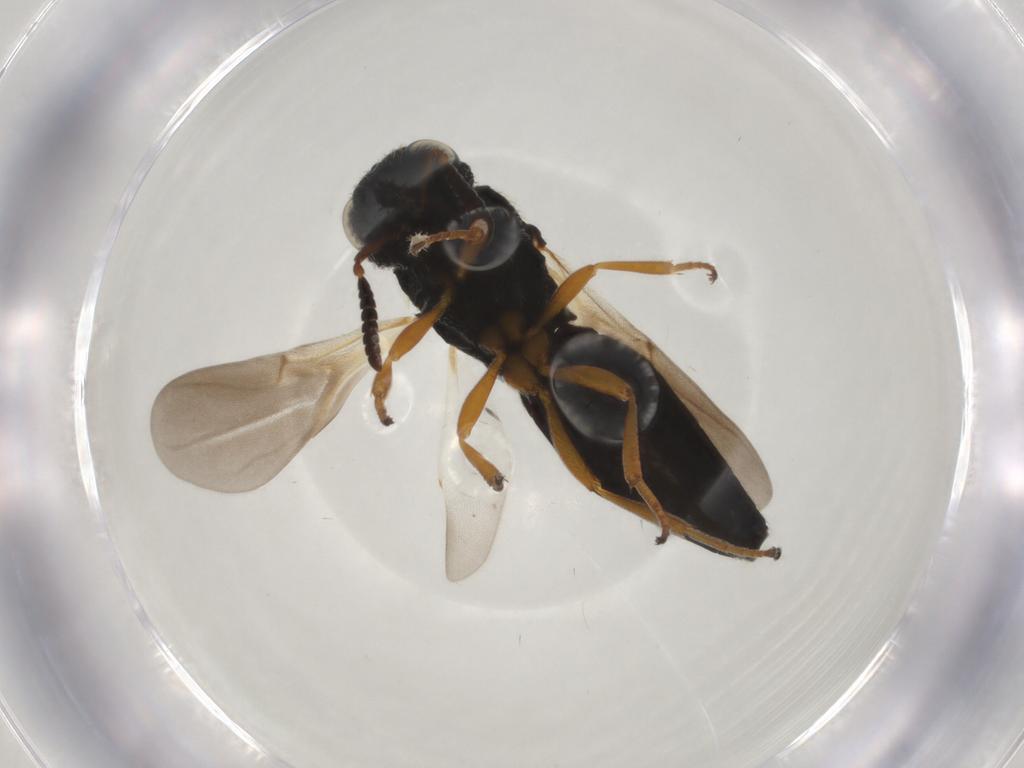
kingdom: Animalia
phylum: Arthropoda
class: Insecta
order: Hymenoptera
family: Scelionidae
